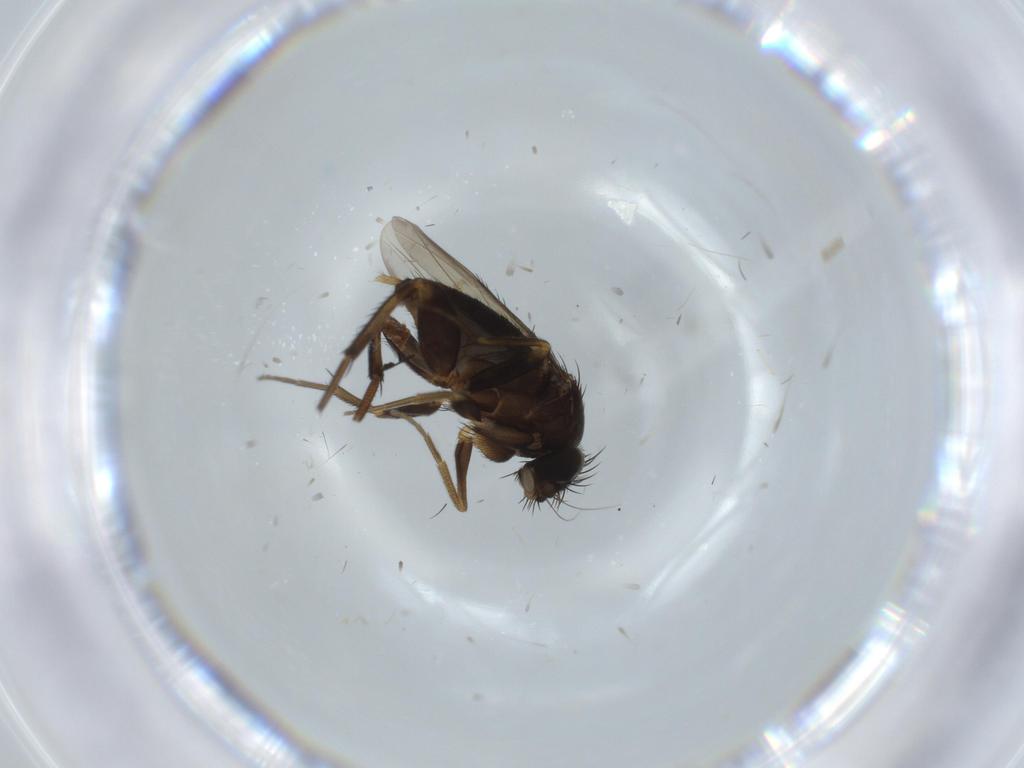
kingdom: Animalia
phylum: Arthropoda
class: Insecta
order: Diptera
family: Sphaeroceridae
